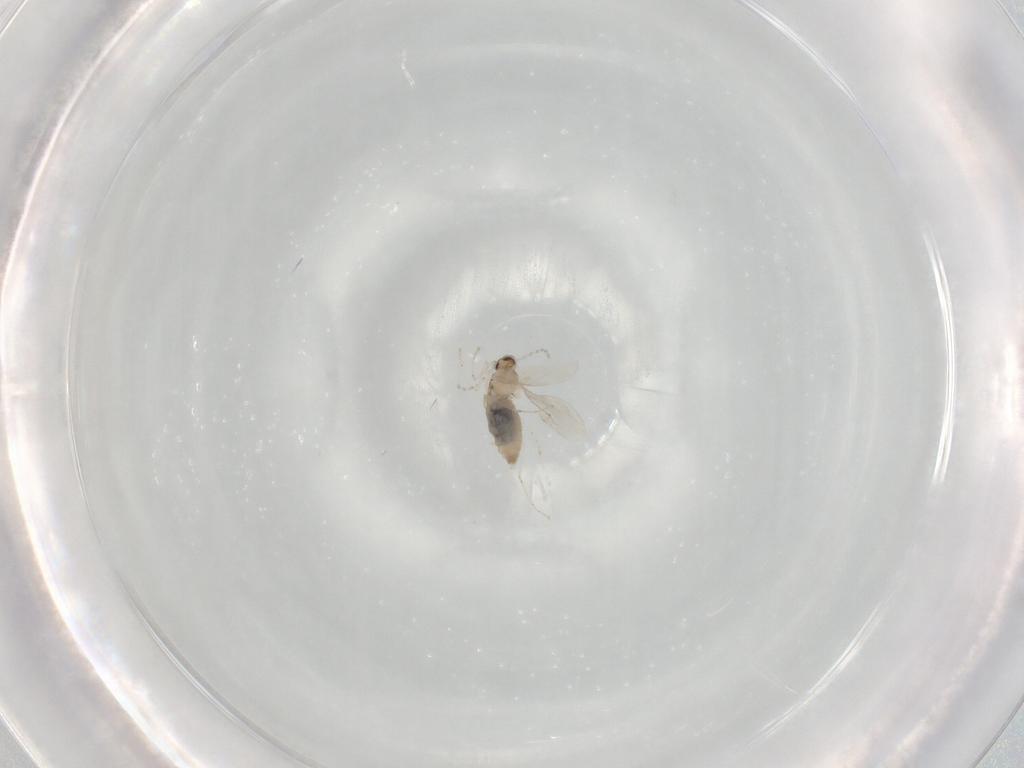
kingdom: Animalia
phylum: Arthropoda
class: Insecta
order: Diptera
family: Cecidomyiidae
